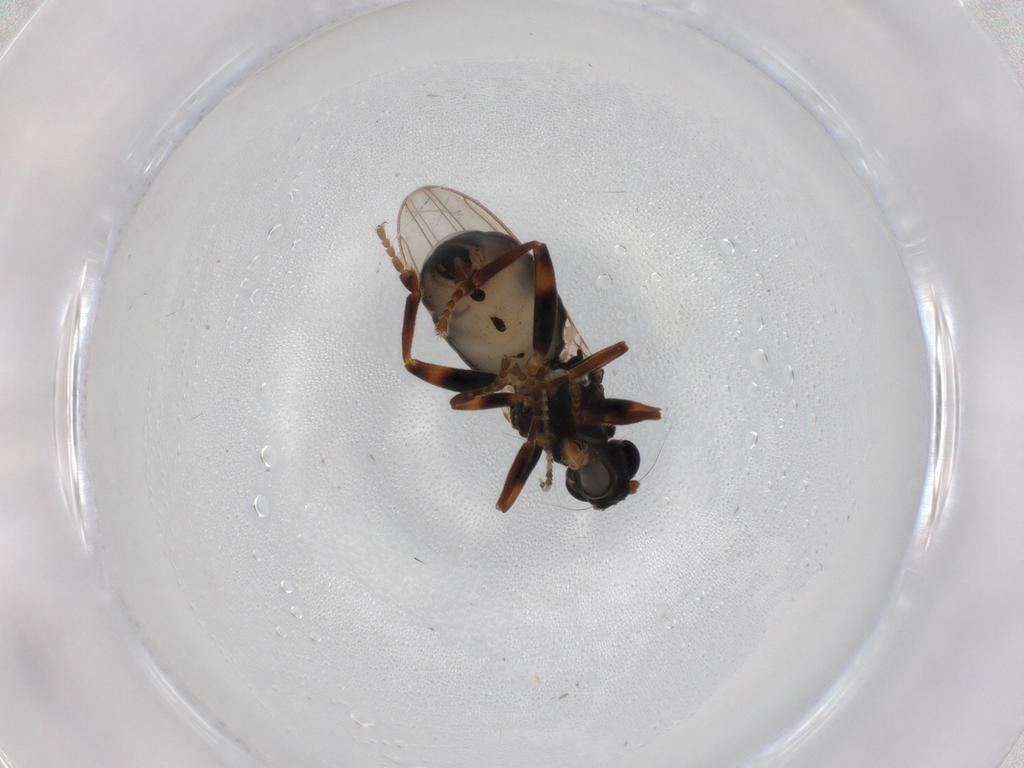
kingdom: Animalia
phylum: Arthropoda
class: Insecta
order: Diptera
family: Sphaeroceridae
